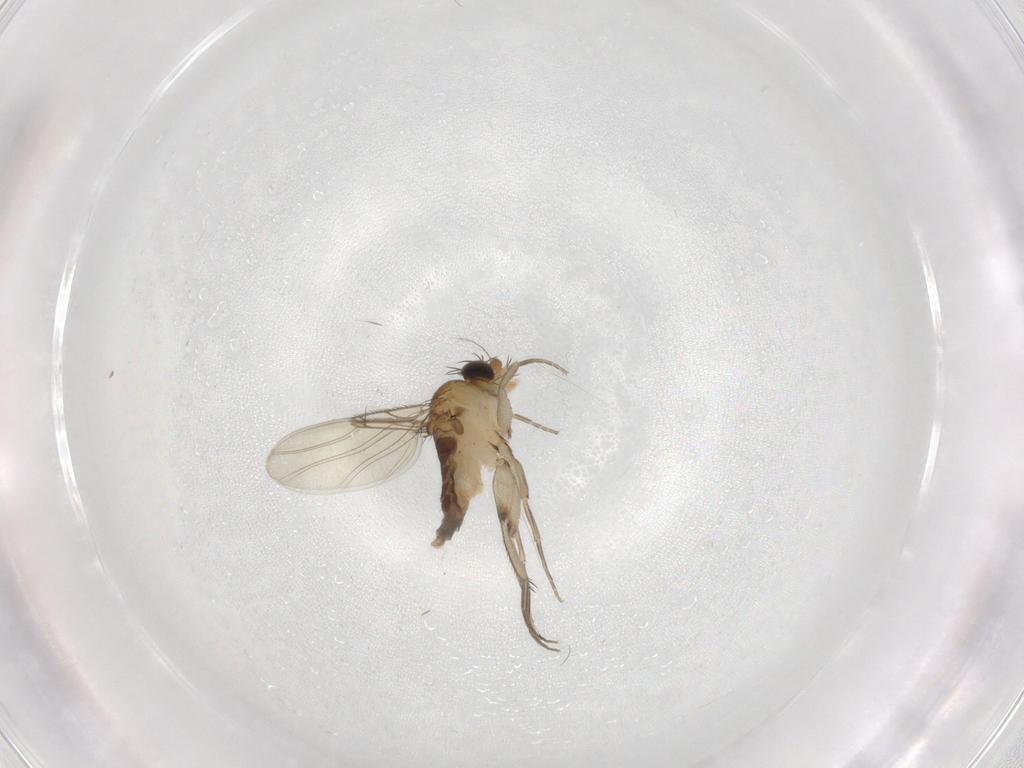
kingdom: Animalia
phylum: Arthropoda
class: Insecta
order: Diptera
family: Phoridae
